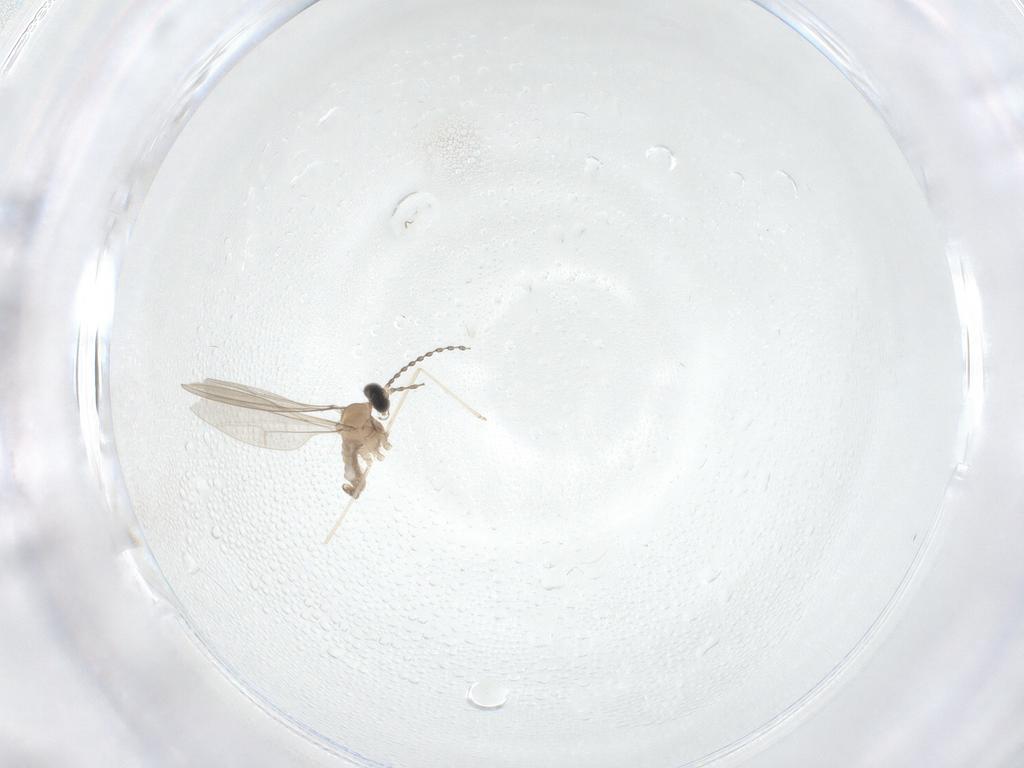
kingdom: Animalia
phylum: Arthropoda
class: Insecta
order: Diptera
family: Cecidomyiidae
